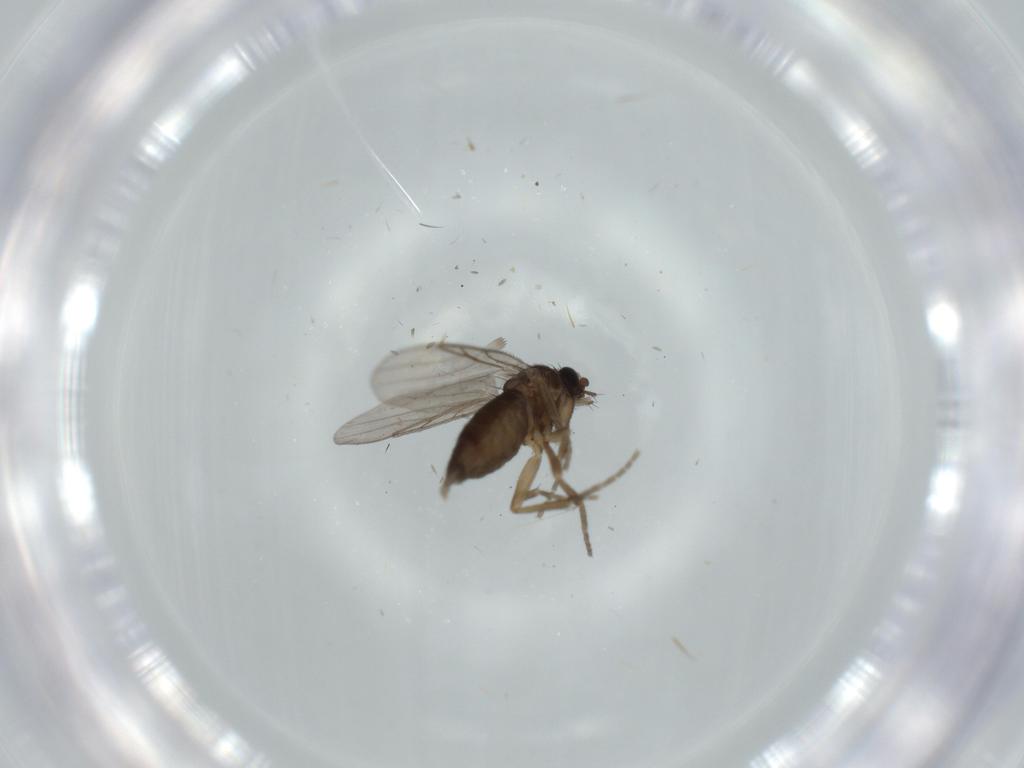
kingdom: Animalia
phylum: Arthropoda
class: Insecta
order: Diptera
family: Phoridae
